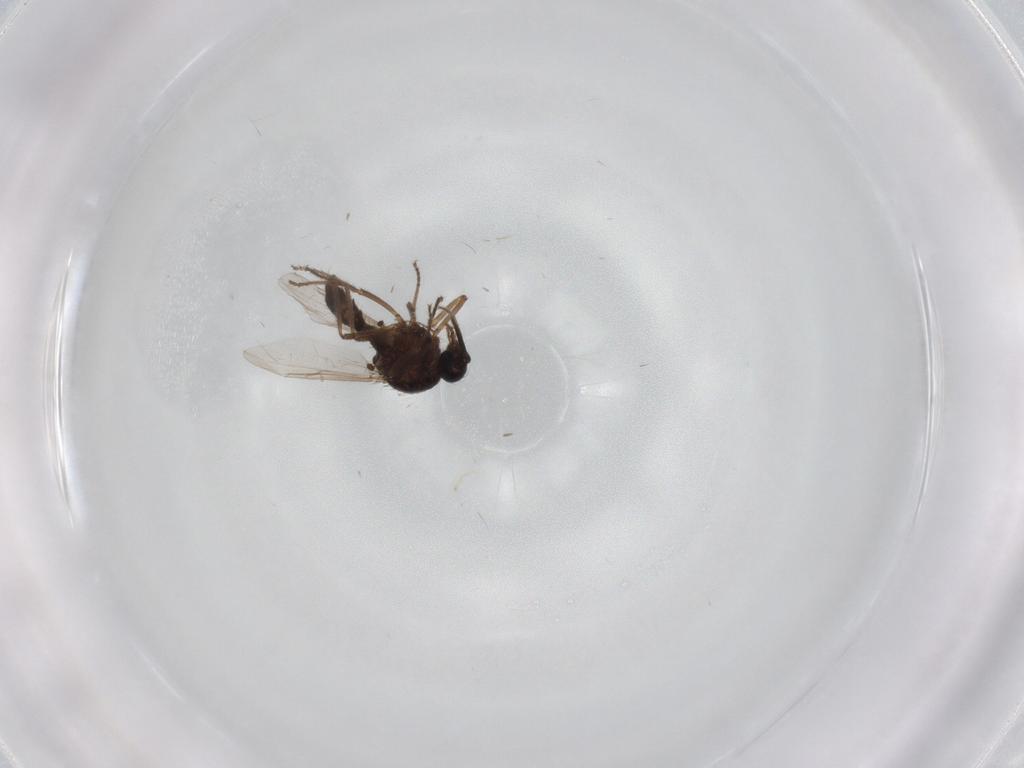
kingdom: Animalia
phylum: Arthropoda
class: Insecta
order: Diptera
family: Ceratopogonidae
